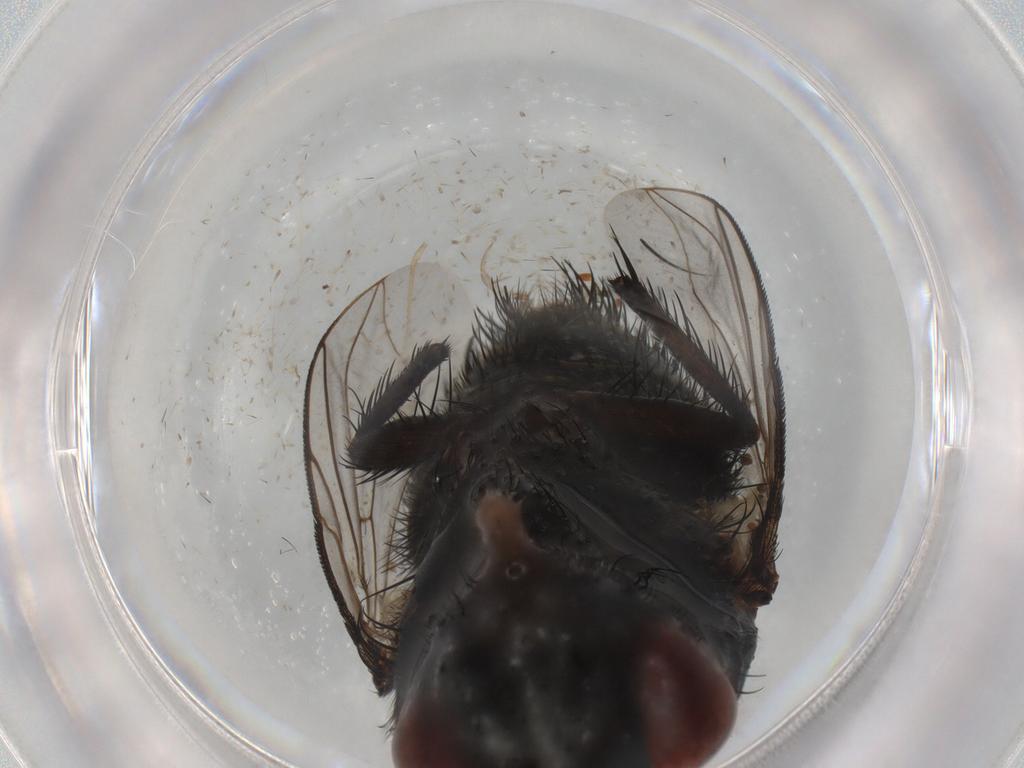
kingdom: Animalia
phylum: Arthropoda
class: Insecta
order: Diptera
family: Tachinidae
